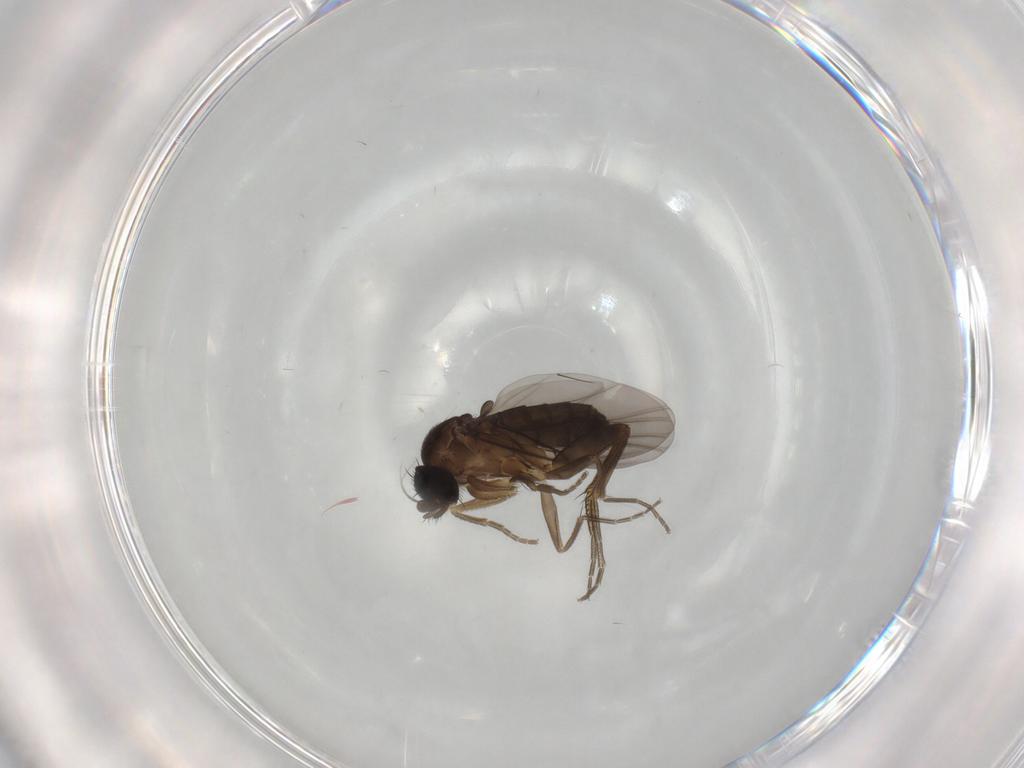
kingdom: Animalia
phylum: Arthropoda
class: Insecta
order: Diptera
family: Phoridae
